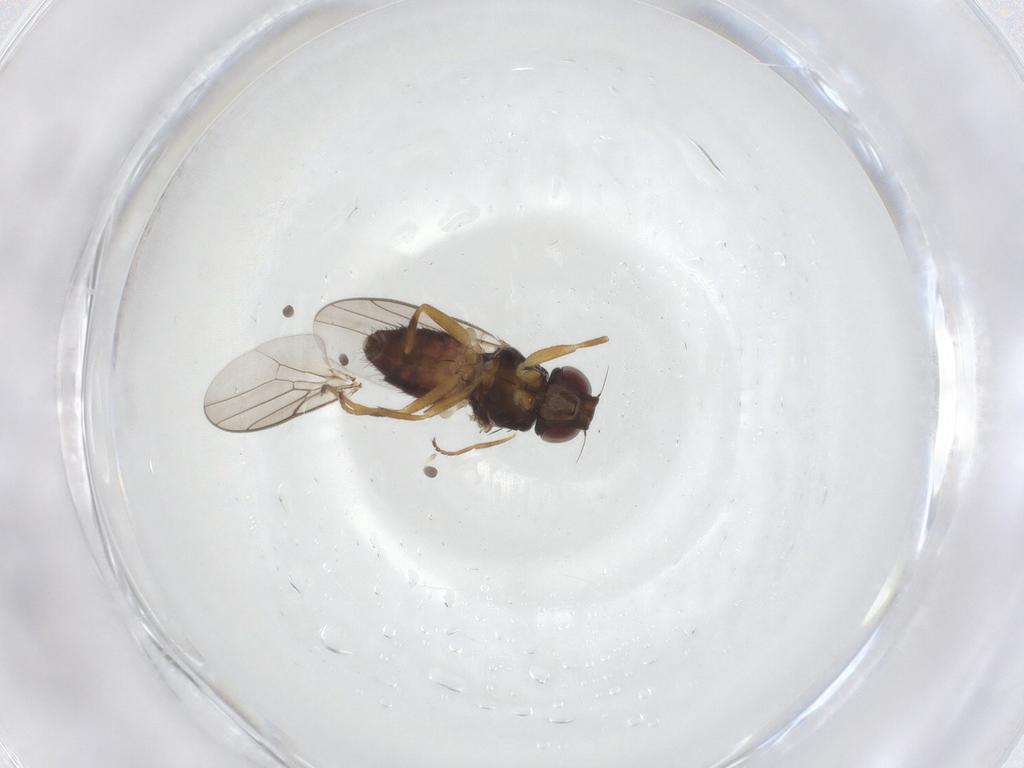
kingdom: Animalia
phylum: Arthropoda
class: Insecta
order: Diptera
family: Chloropidae
